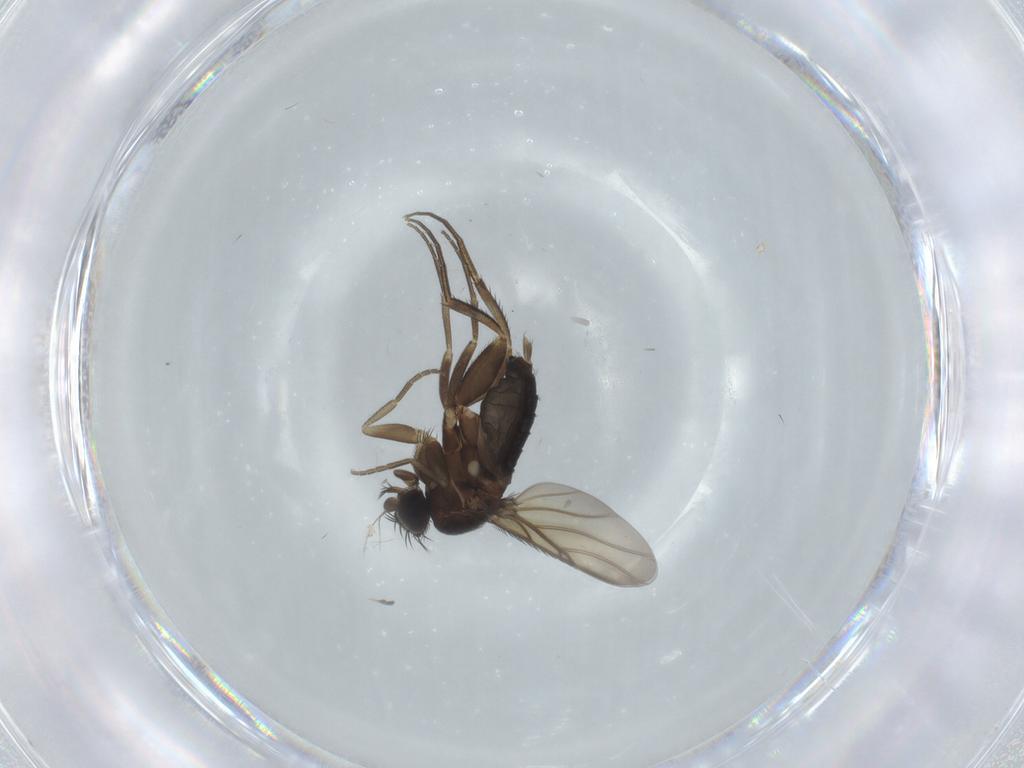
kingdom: Animalia
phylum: Arthropoda
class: Insecta
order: Diptera
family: Phoridae
